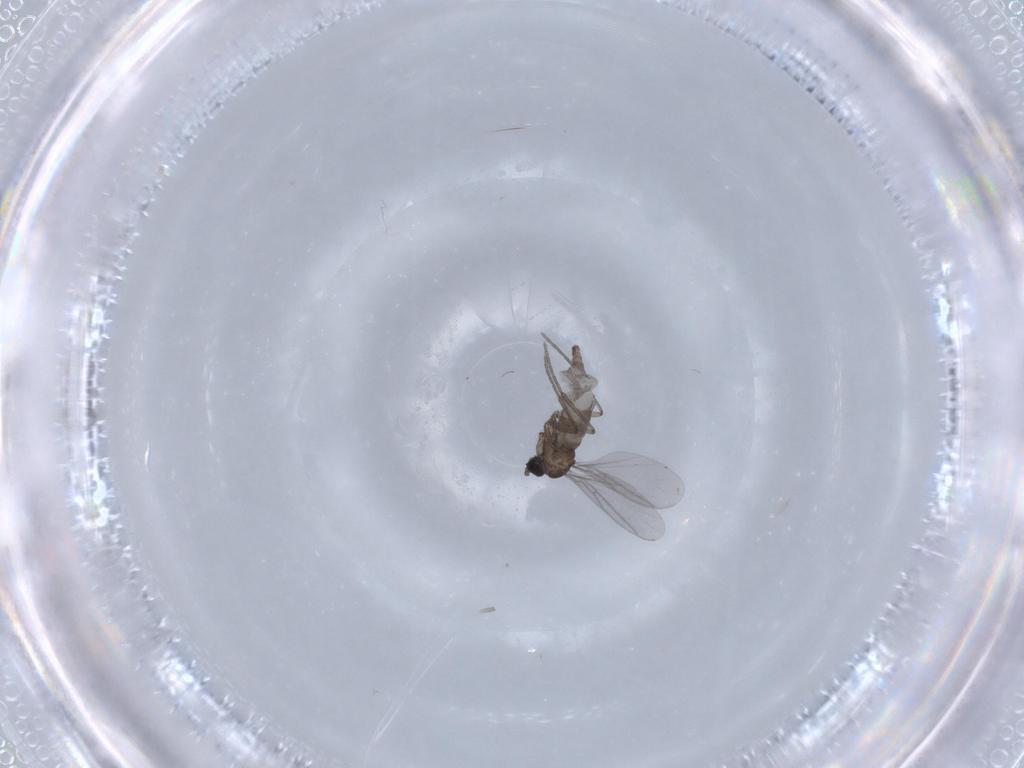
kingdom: Animalia
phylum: Arthropoda
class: Insecta
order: Diptera
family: Sciaridae
